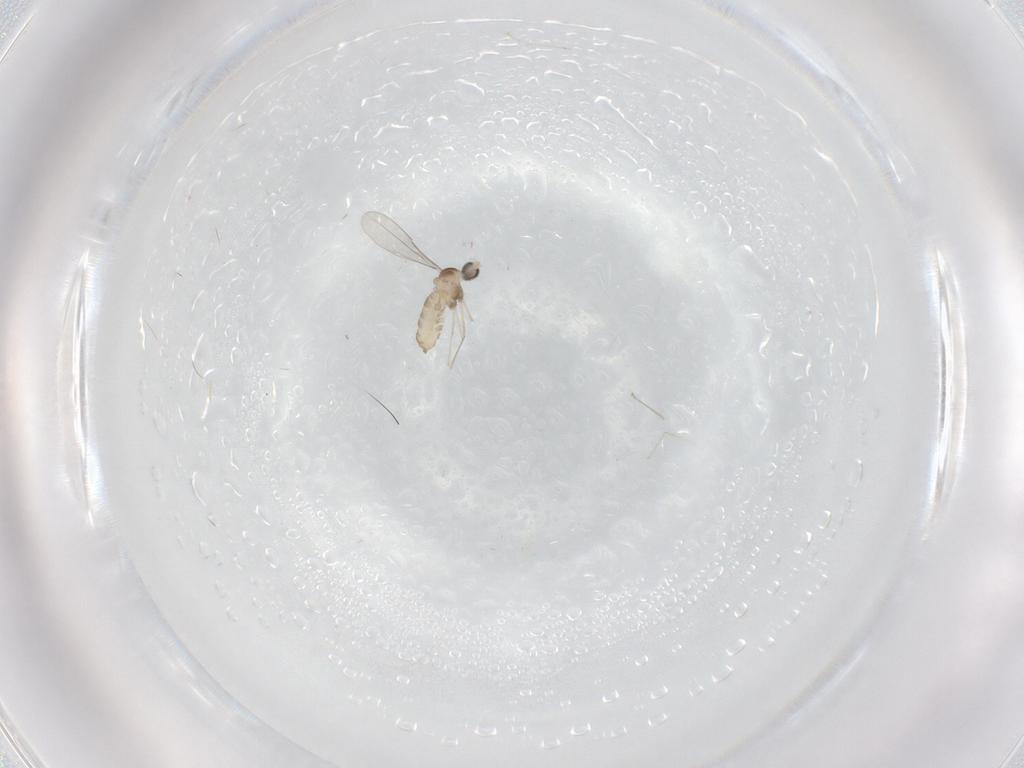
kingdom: Animalia
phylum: Arthropoda
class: Insecta
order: Diptera
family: Cecidomyiidae
